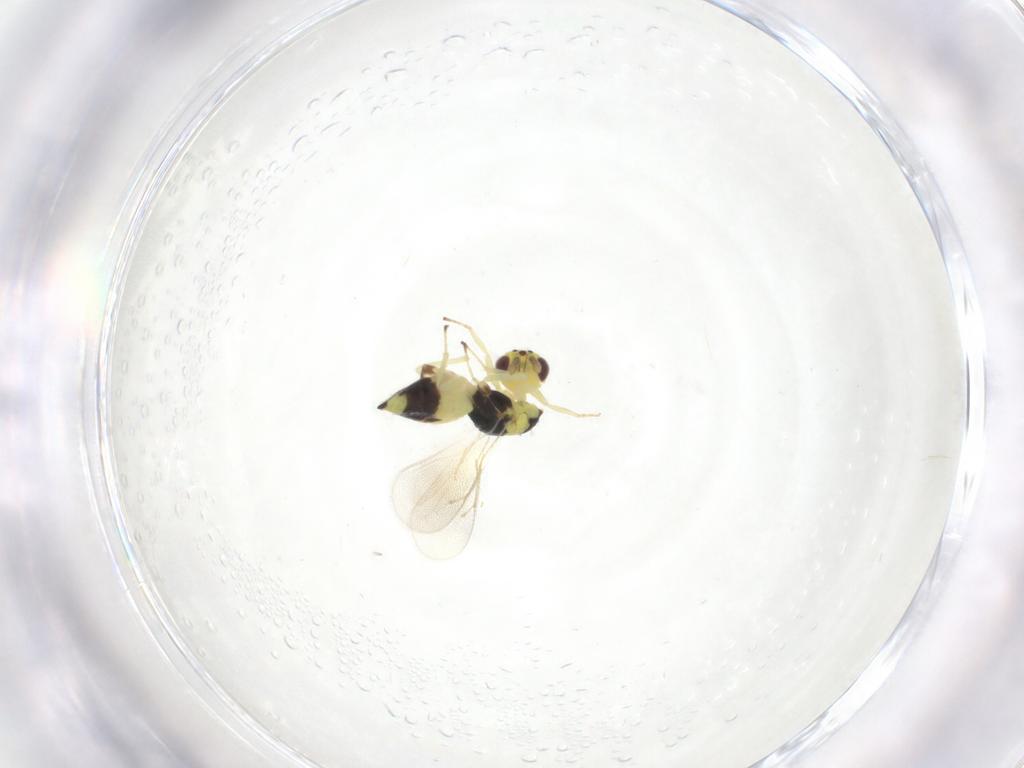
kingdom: Animalia
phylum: Arthropoda
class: Insecta
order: Hymenoptera
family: Eulophidae
